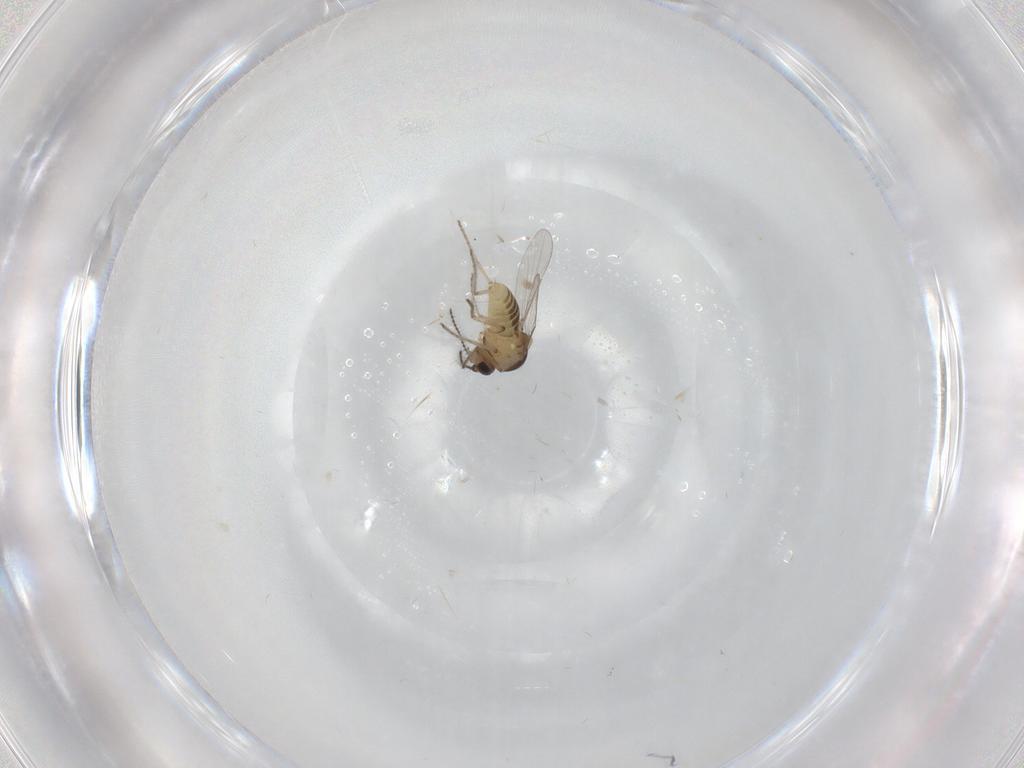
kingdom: Animalia
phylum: Arthropoda
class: Insecta
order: Diptera
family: Ceratopogonidae
